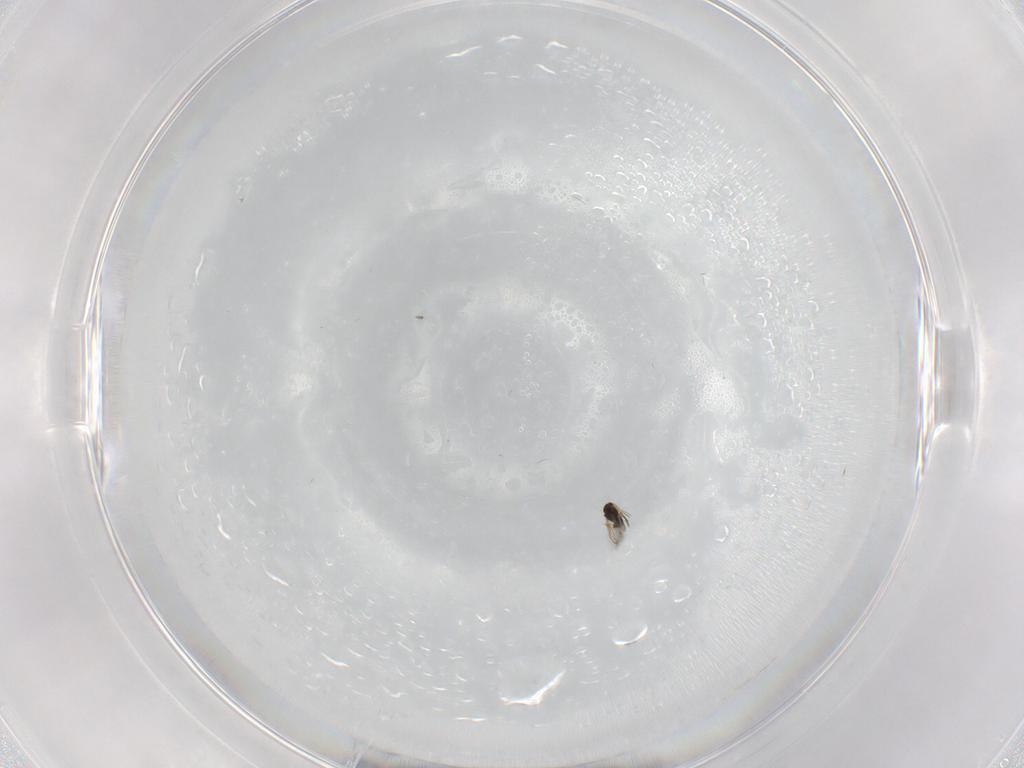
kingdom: Animalia
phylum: Arthropoda
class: Insecta
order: Hymenoptera
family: Mymaridae
